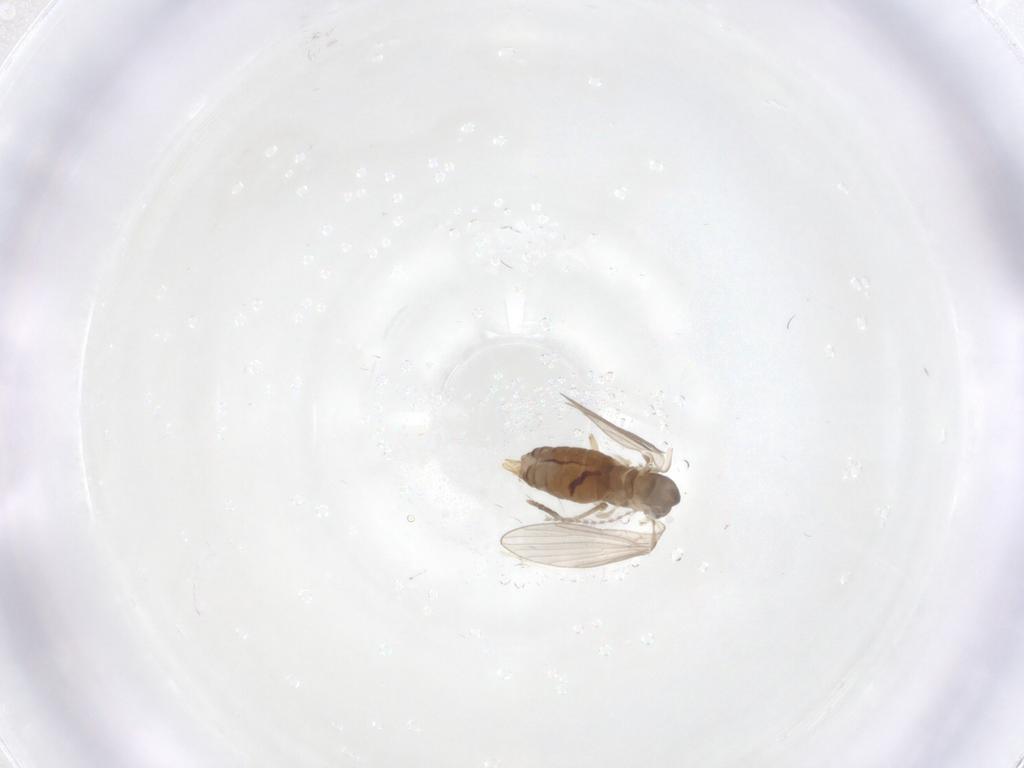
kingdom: Animalia
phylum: Arthropoda
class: Insecta
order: Diptera
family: Psychodidae
